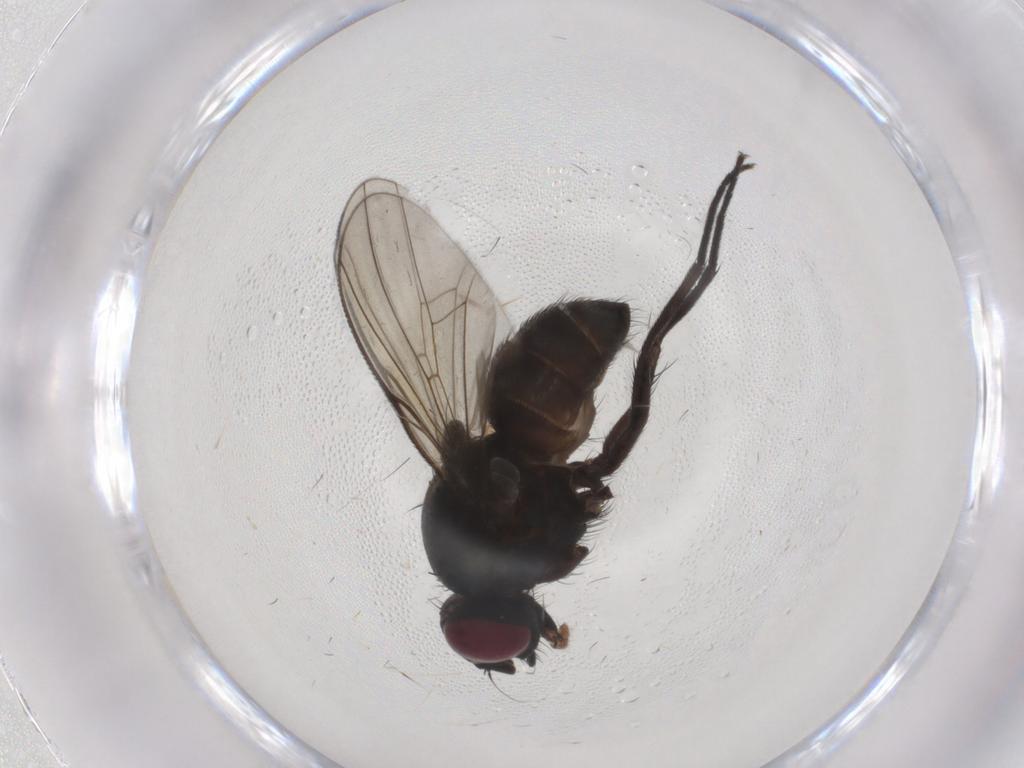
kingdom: Animalia
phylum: Arthropoda
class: Insecta
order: Diptera
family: Muscidae
